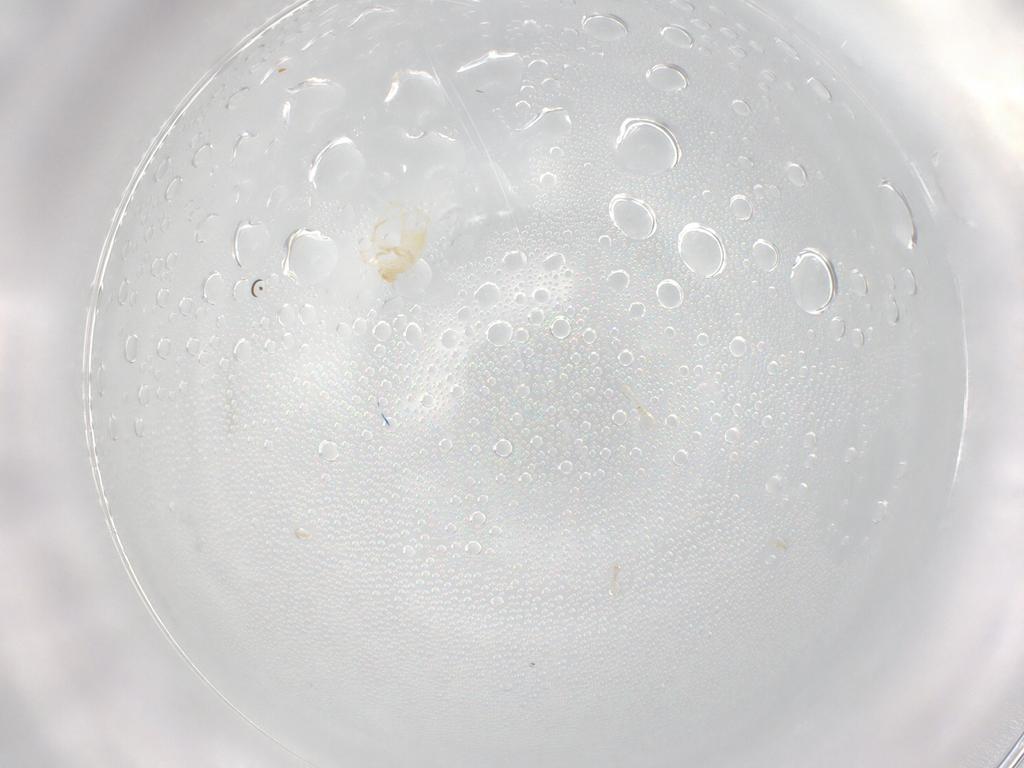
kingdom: Animalia
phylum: Arthropoda
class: Arachnida
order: Trombidiformes
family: Erythraeidae
